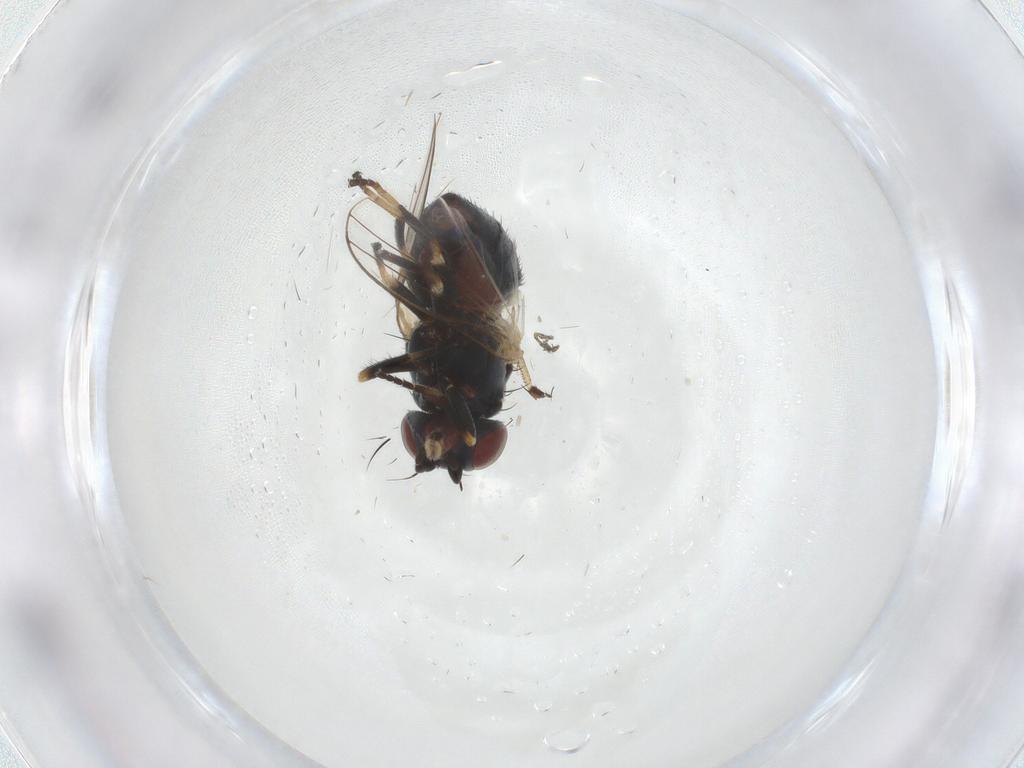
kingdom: Animalia
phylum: Arthropoda
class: Insecta
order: Diptera
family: Chamaemyiidae
